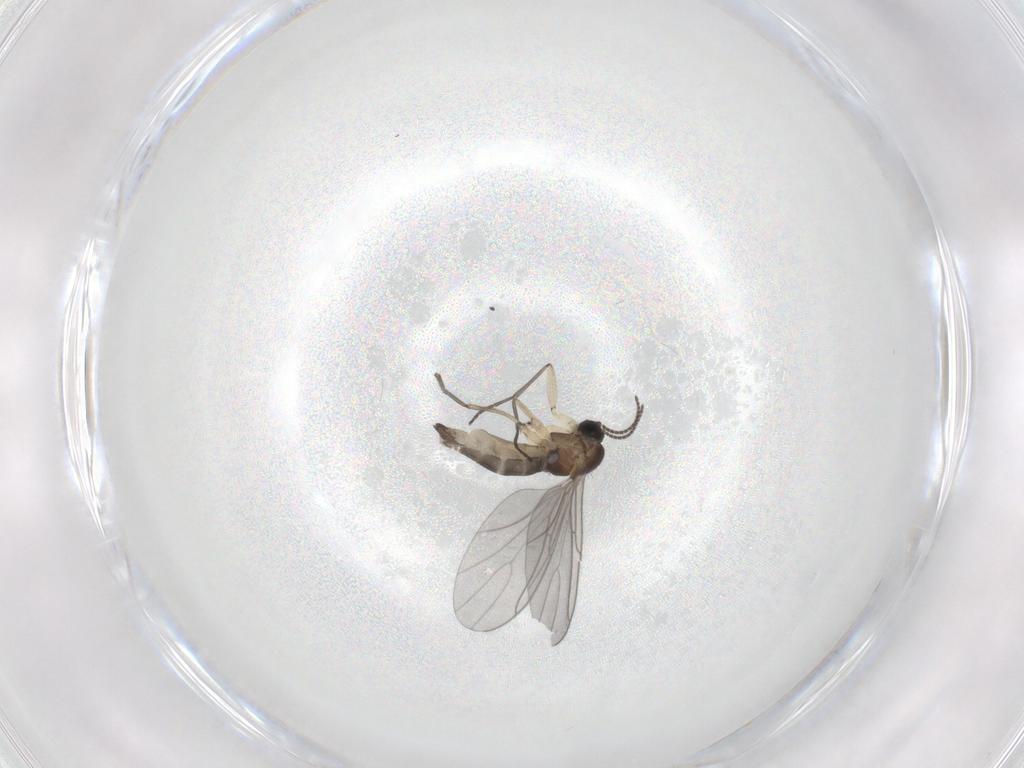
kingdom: Animalia
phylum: Arthropoda
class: Insecta
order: Diptera
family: Sciaridae
